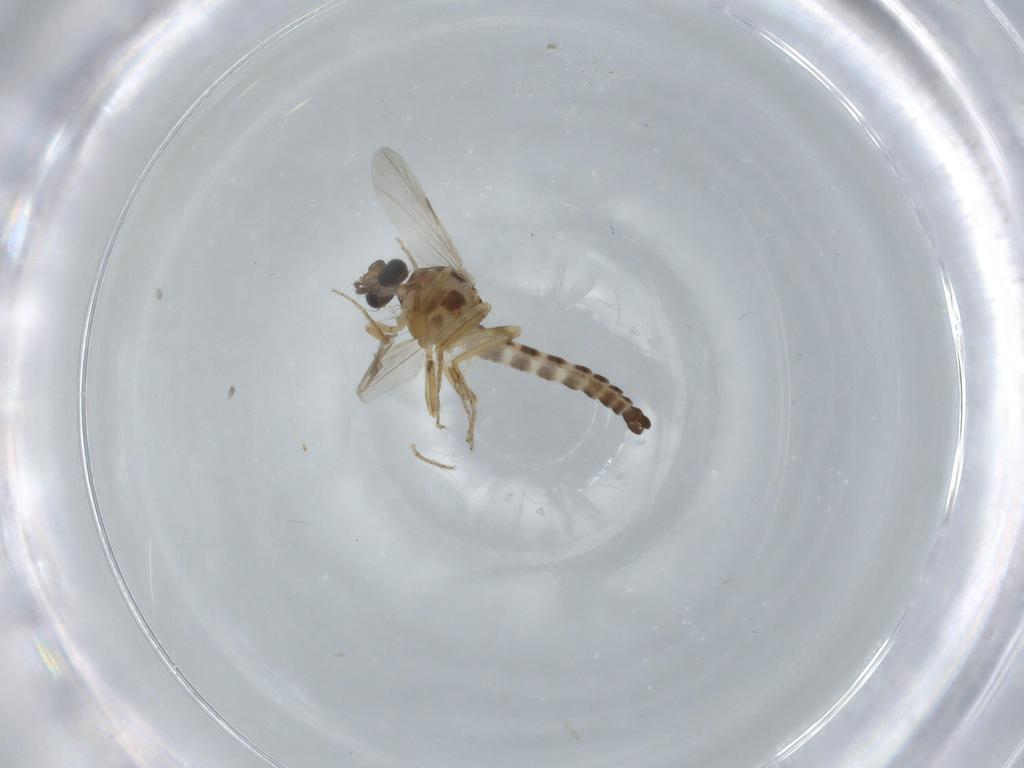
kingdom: Animalia
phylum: Arthropoda
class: Insecta
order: Diptera
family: Ceratopogonidae
